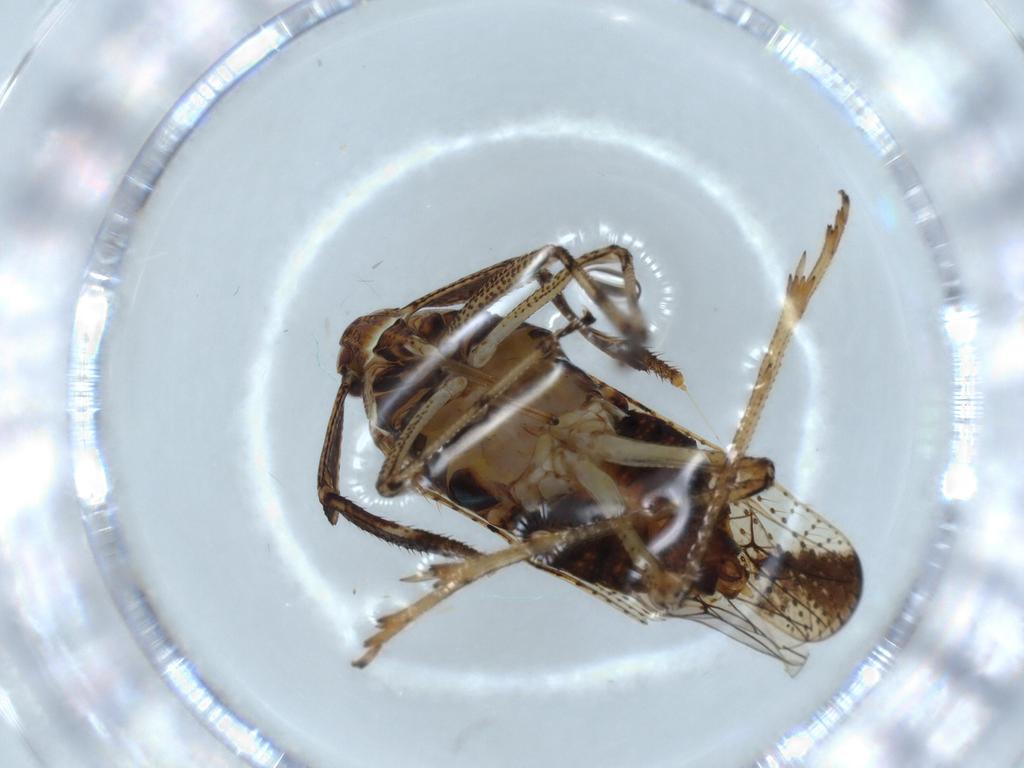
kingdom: Animalia
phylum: Arthropoda
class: Insecta
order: Hemiptera
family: Delphacidae
